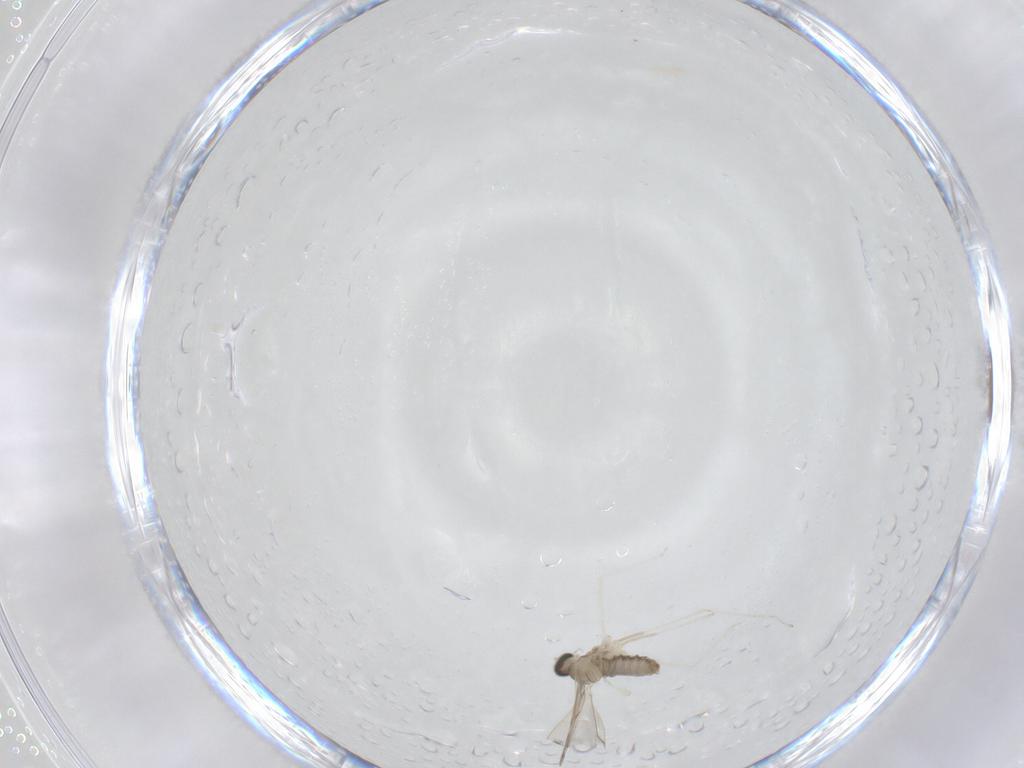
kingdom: Animalia
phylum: Arthropoda
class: Insecta
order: Diptera
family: Cecidomyiidae
